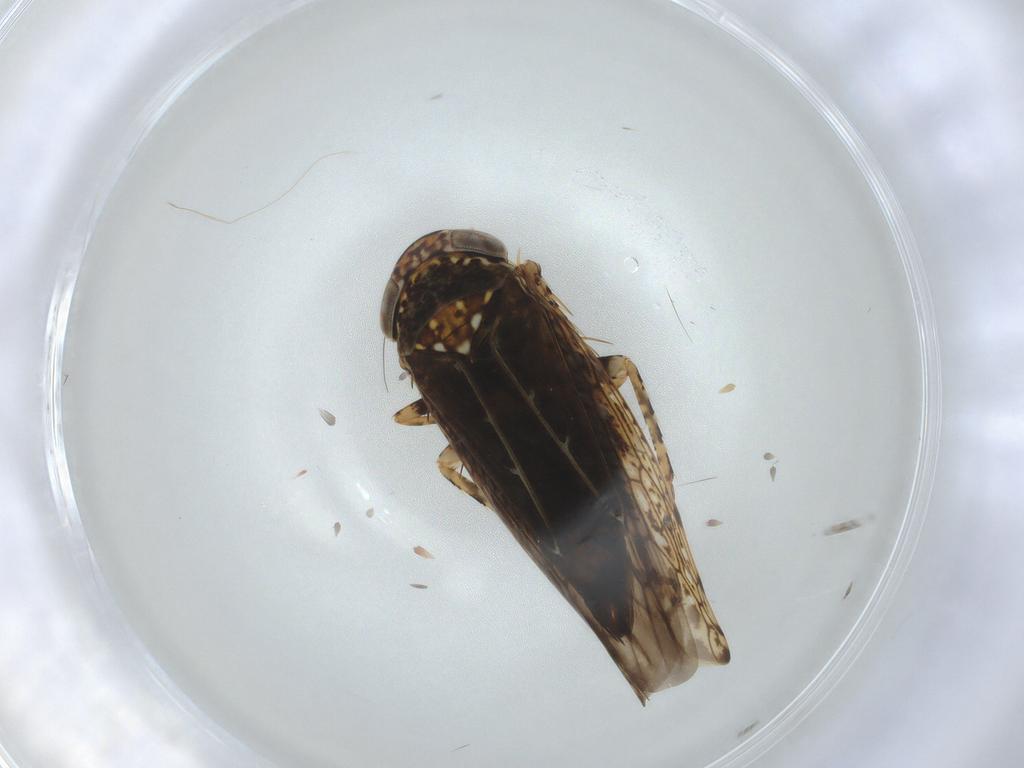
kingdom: Animalia
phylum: Arthropoda
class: Insecta
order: Hemiptera
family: Cicadellidae
